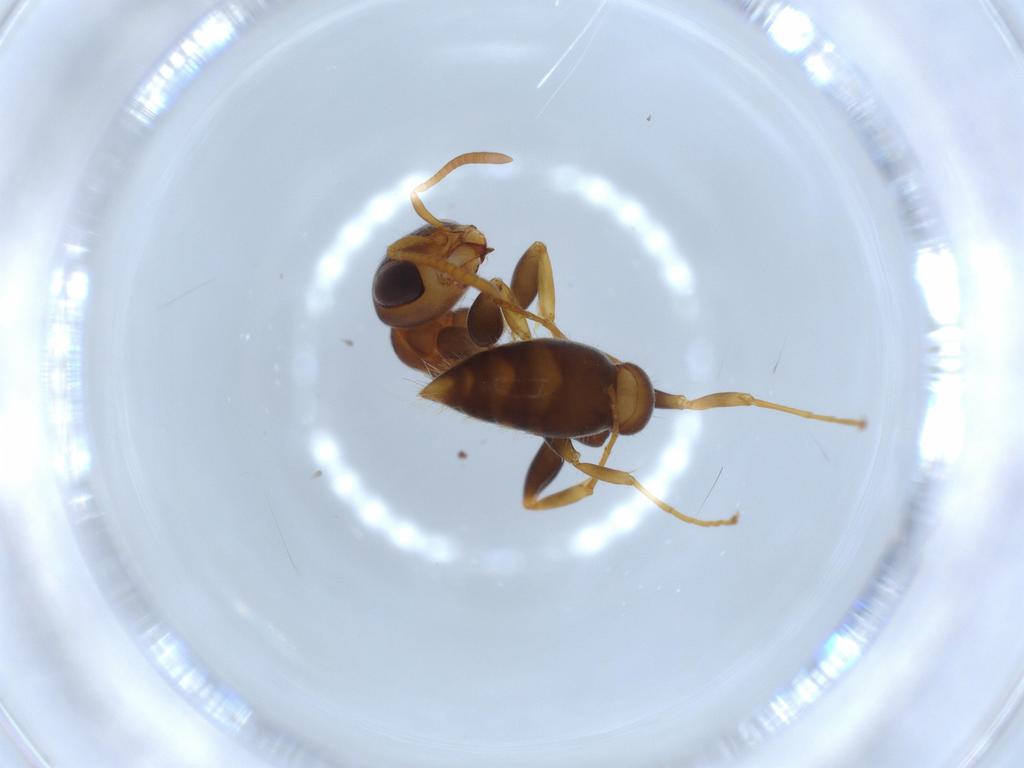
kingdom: Animalia
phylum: Arthropoda
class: Insecta
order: Hymenoptera
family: Formicidae
